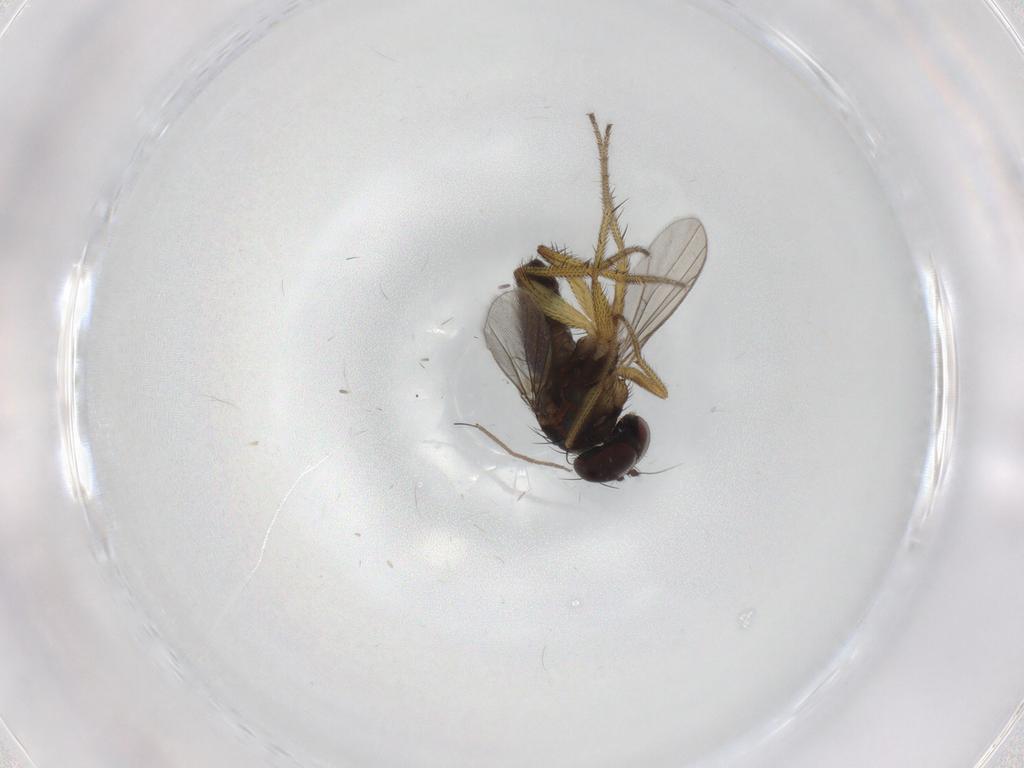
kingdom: Animalia
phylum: Arthropoda
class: Insecta
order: Diptera
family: Dolichopodidae
